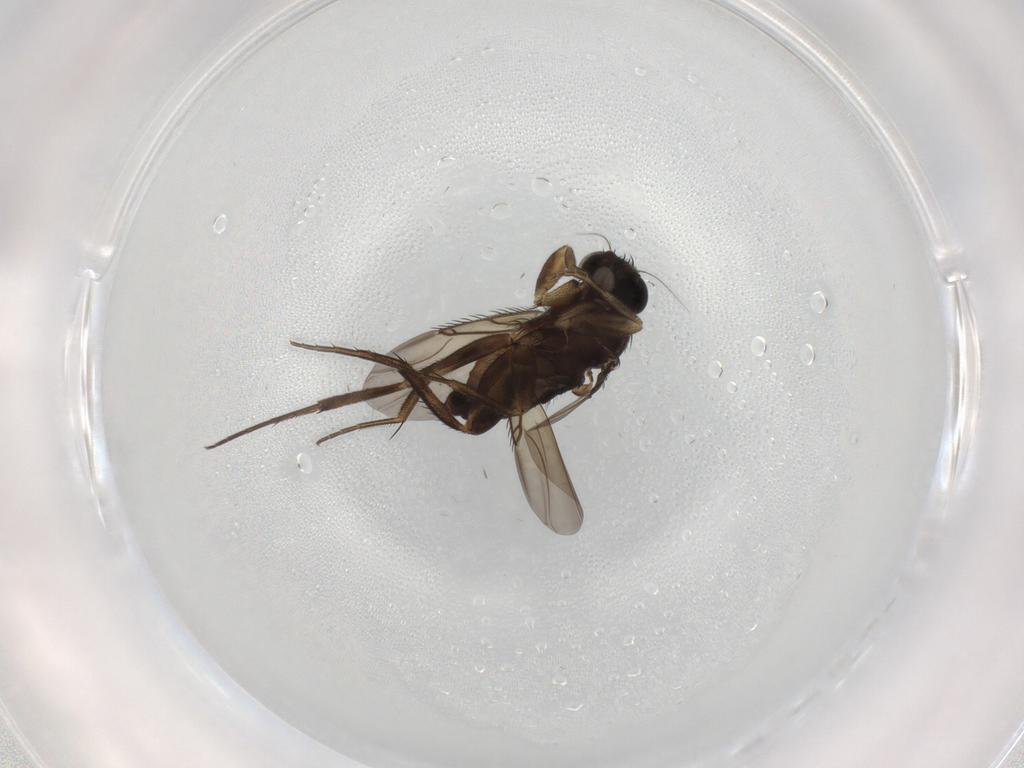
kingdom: Animalia
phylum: Arthropoda
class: Insecta
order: Diptera
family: Phoridae
